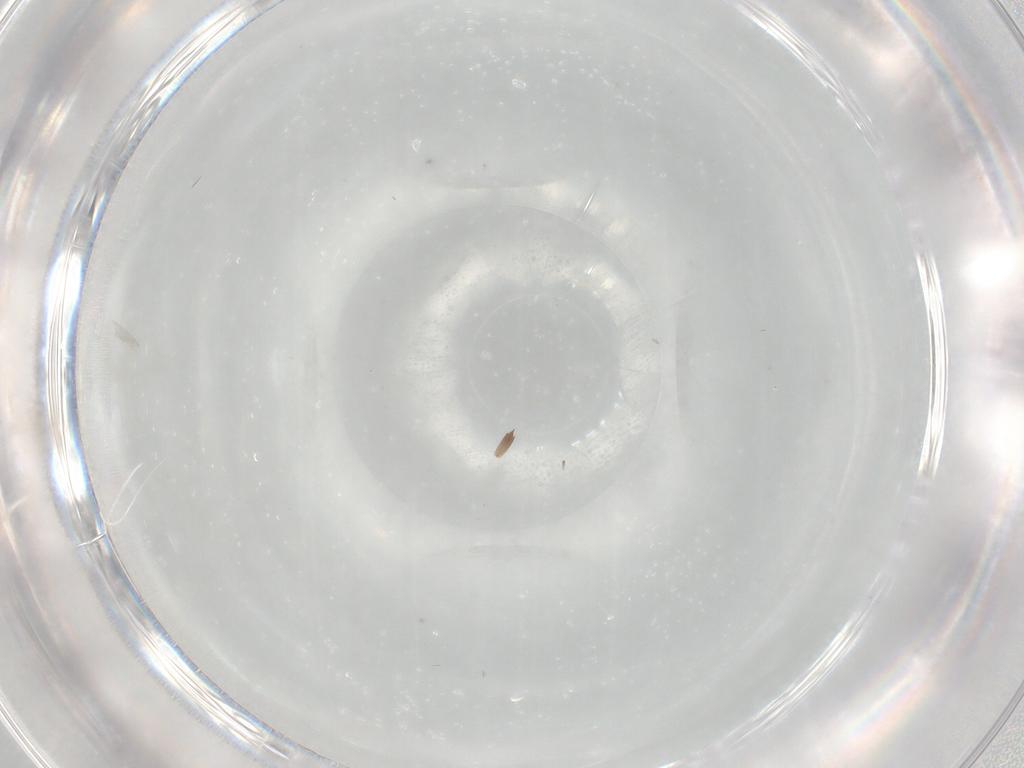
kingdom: Animalia
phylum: Arthropoda
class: Insecta
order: Diptera
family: Cecidomyiidae
